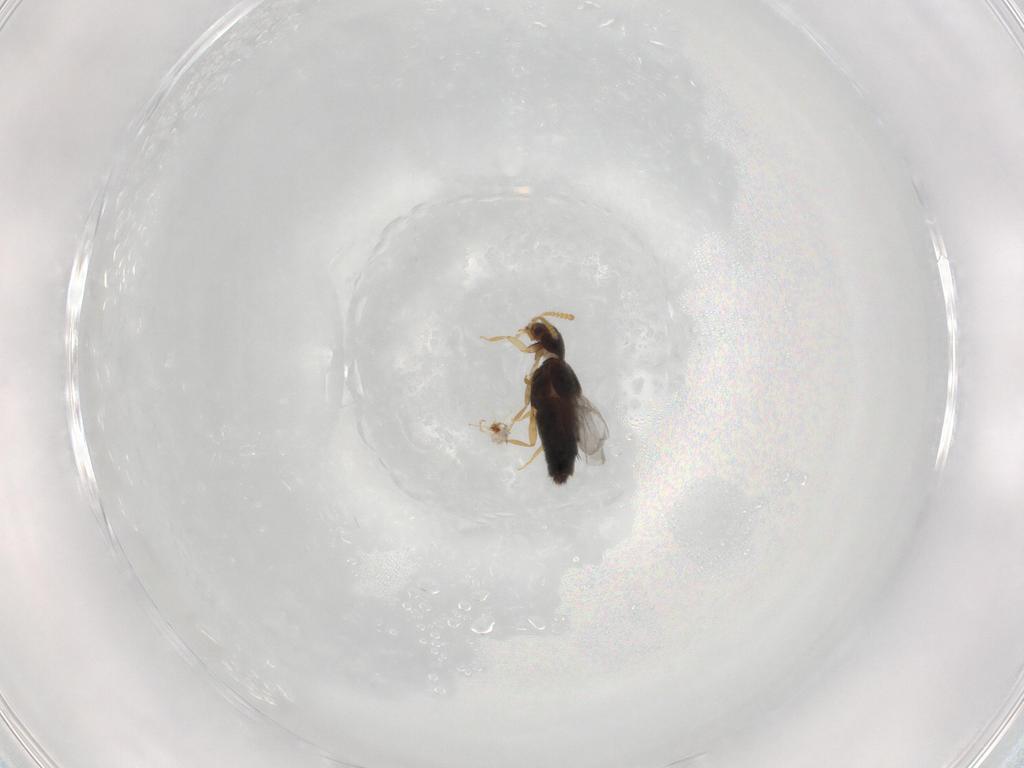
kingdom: Animalia
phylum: Arthropoda
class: Insecta
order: Coleoptera
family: Staphylinidae
